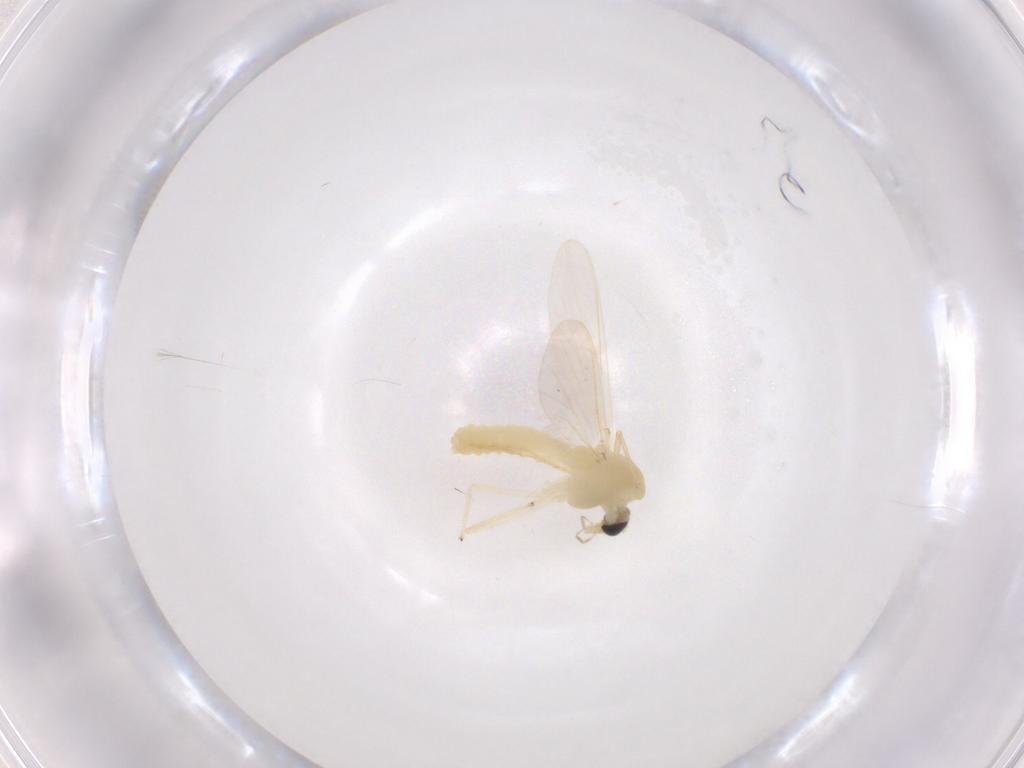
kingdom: Animalia
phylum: Arthropoda
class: Insecta
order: Diptera
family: Chironomidae
